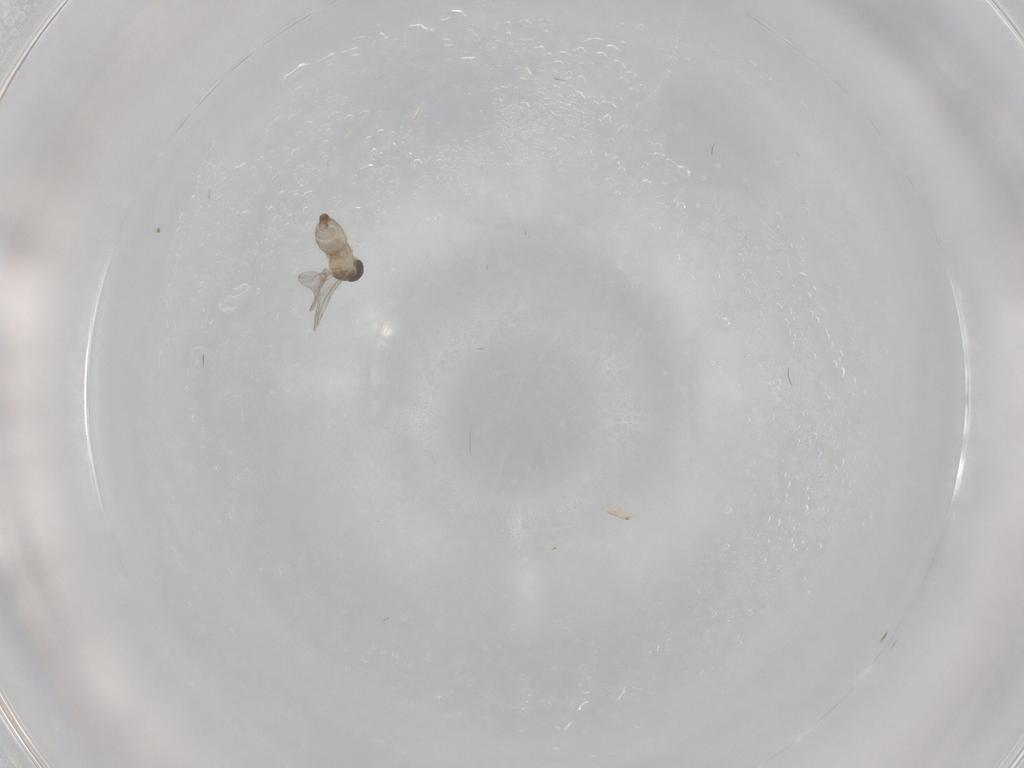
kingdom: Animalia
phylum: Arthropoda
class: Insecta
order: Diptera
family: Cecidomyiidae
